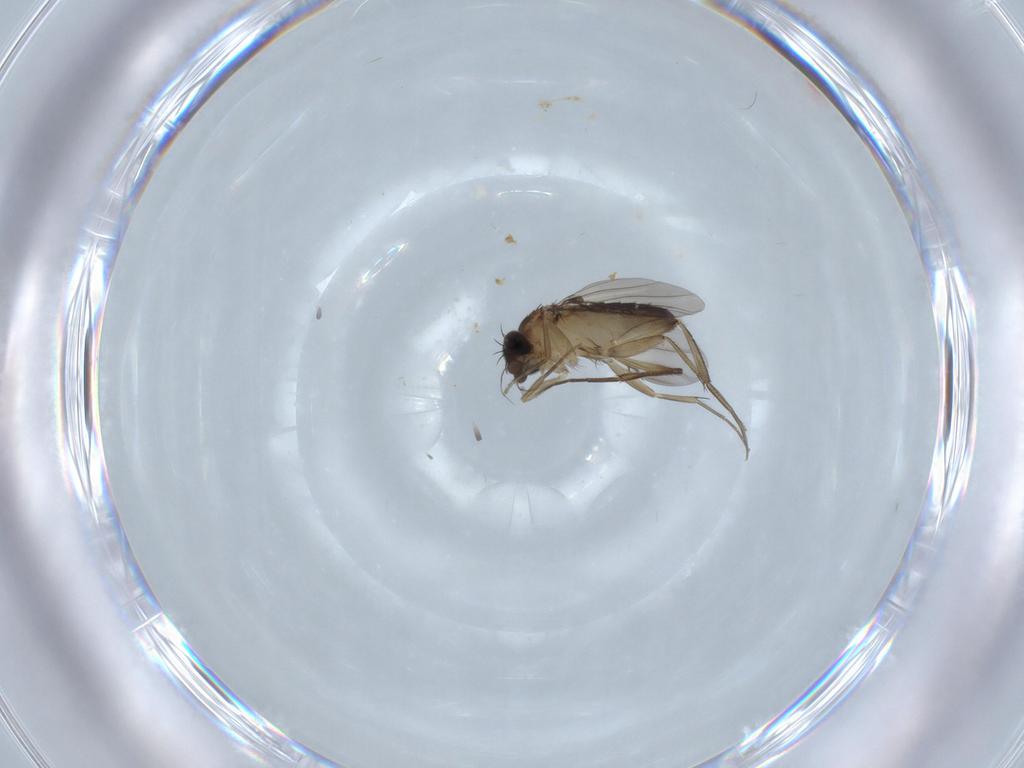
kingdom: Animalia
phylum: Arthropoda
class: Insecta
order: Diptera
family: Phoridae
